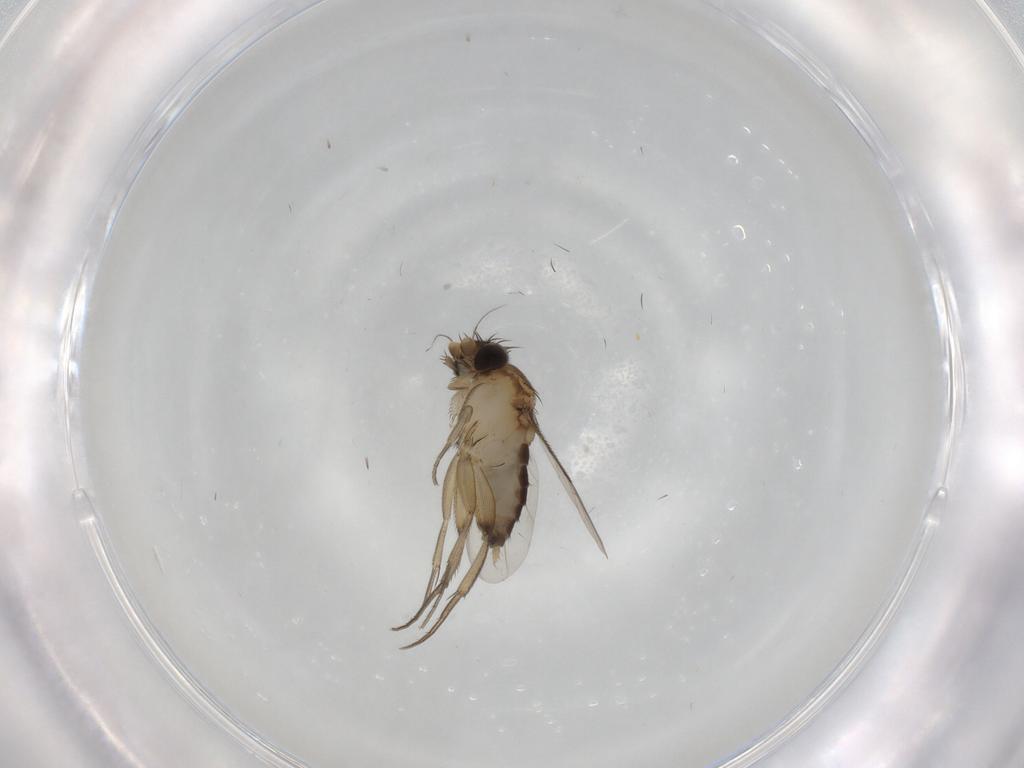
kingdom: Animalia
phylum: Arthropoda
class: Insecta
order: Diptera
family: Phoridae
